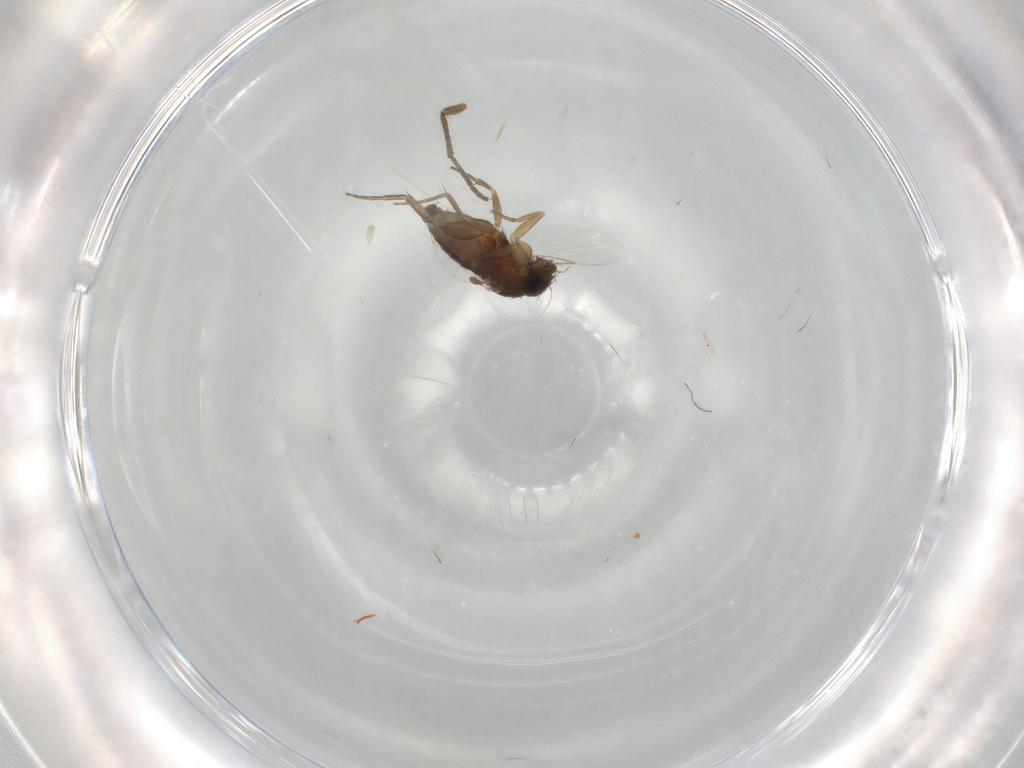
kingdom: Animalia
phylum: Arthropoda
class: Insecta
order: Diptera
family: Phoridae
